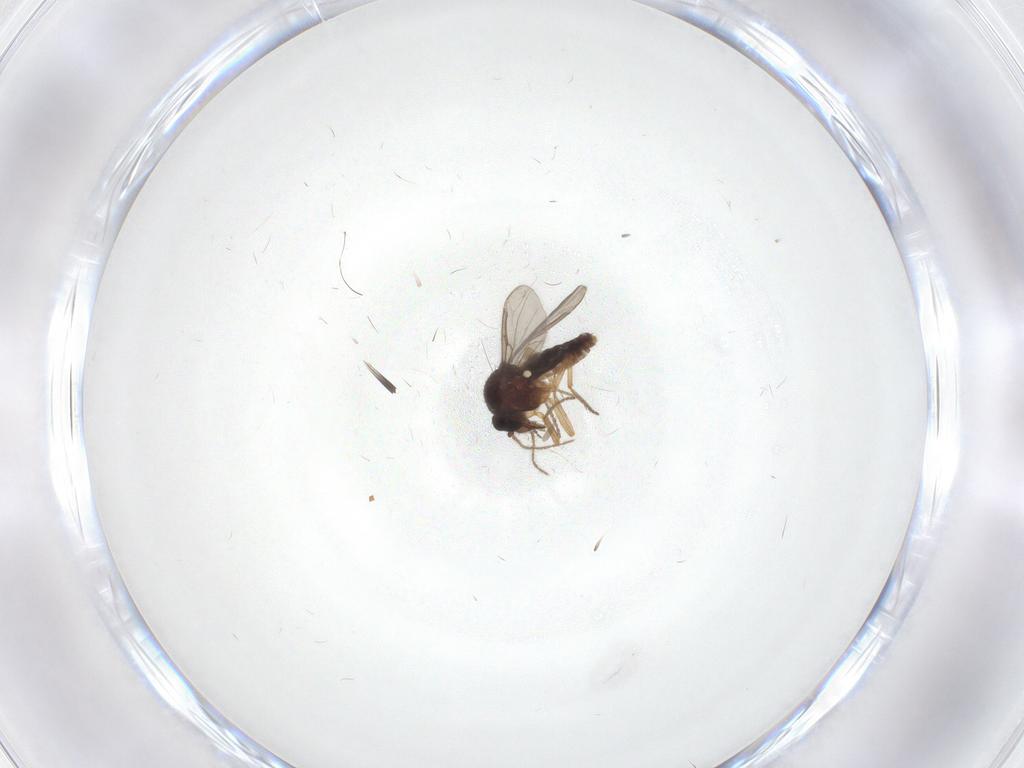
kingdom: Animalia
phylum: Arthropoda
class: Insecta
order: Diptera
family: Ceratopogonidae
